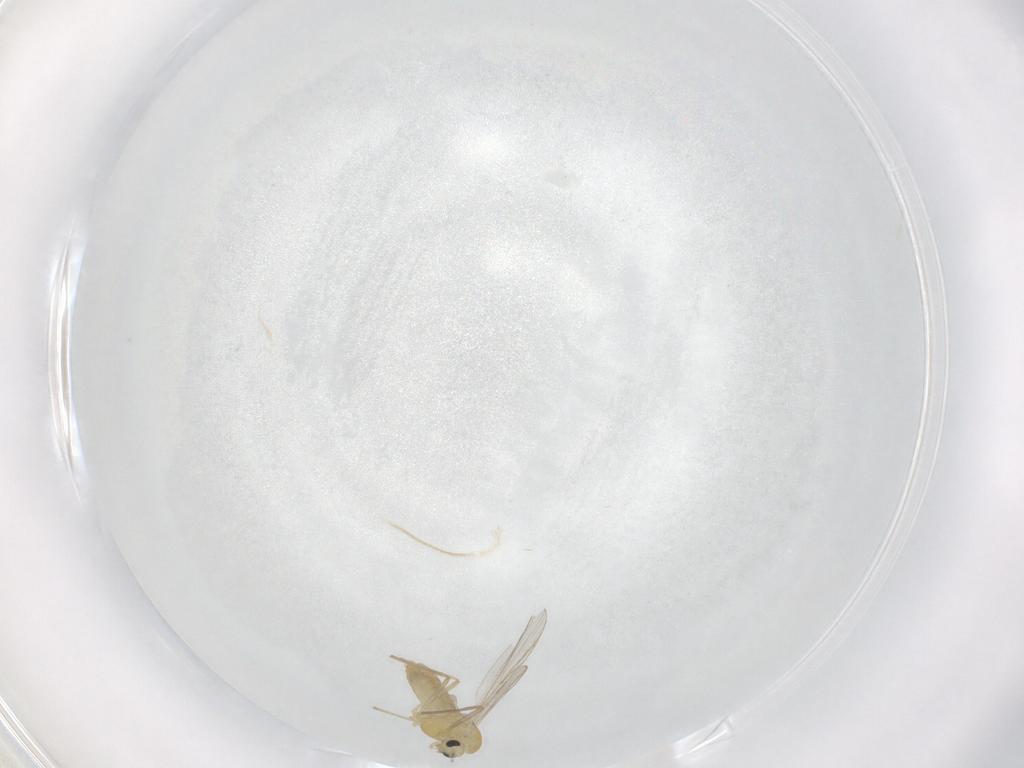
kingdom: Animalia
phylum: Arthropoda
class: Insecta
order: Diptera
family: Chironomidae
